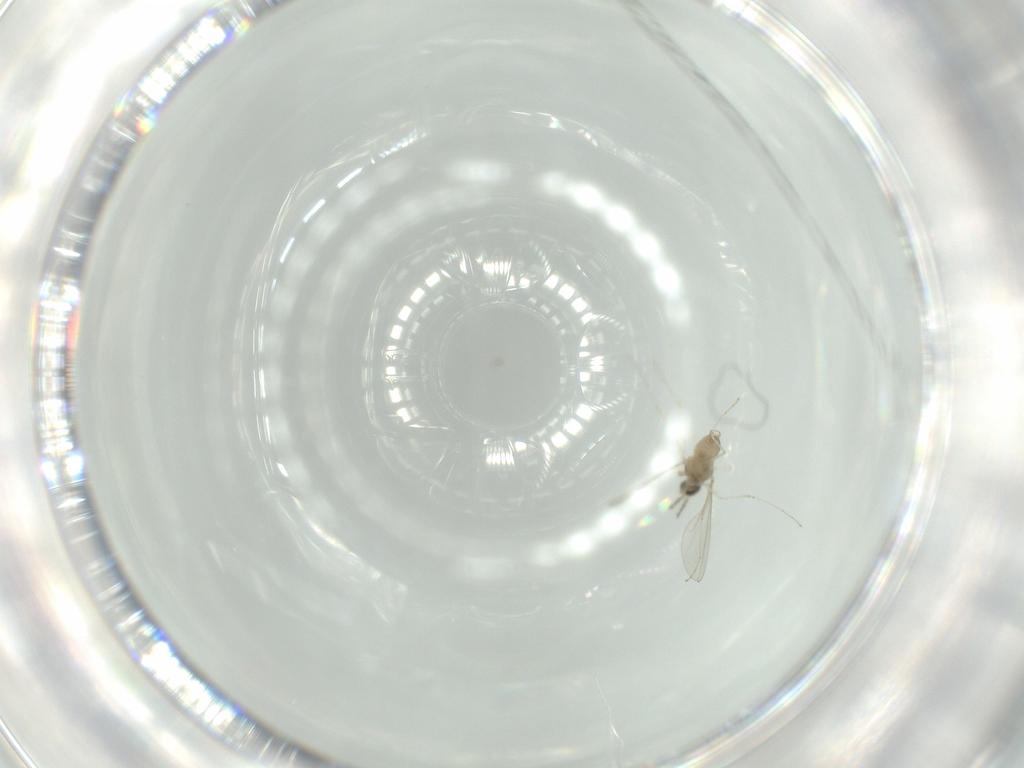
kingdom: Animalia
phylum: Arthropoda
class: Insecta
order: Diptera
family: Cecidomyiidae
